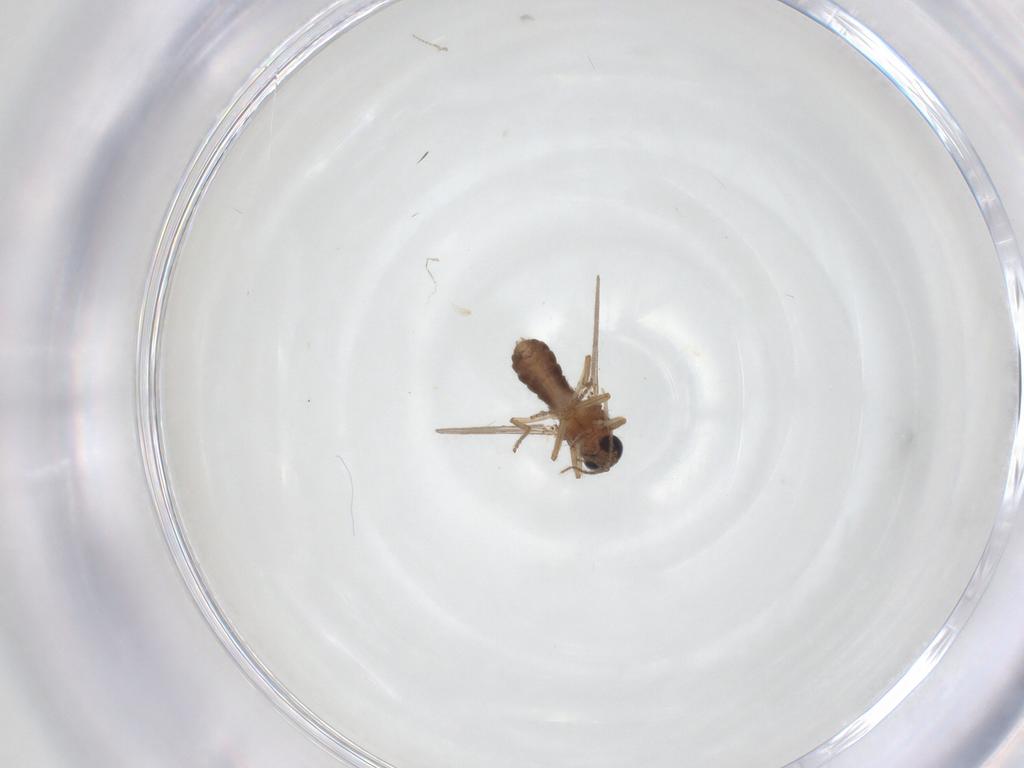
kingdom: Animalia
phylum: Arthropoda
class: Insecta
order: Diptera
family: Ceratopogonidae
